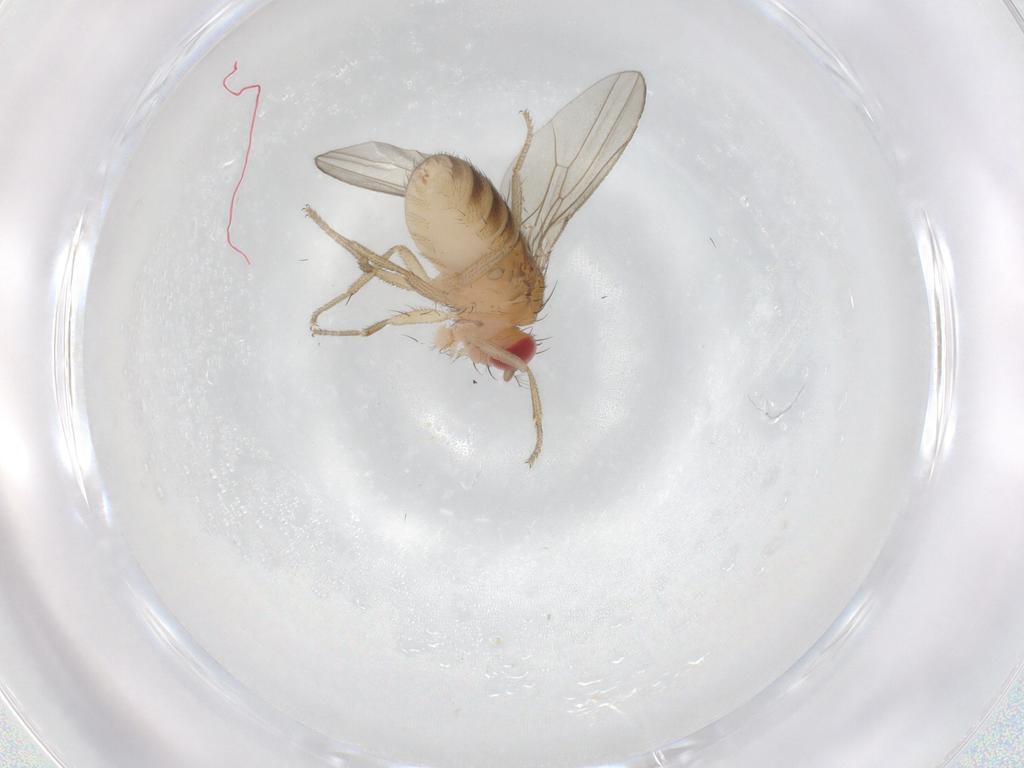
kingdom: Animalia
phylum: Arthropoda
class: Insecta
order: Diptera
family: Drosophilidae
